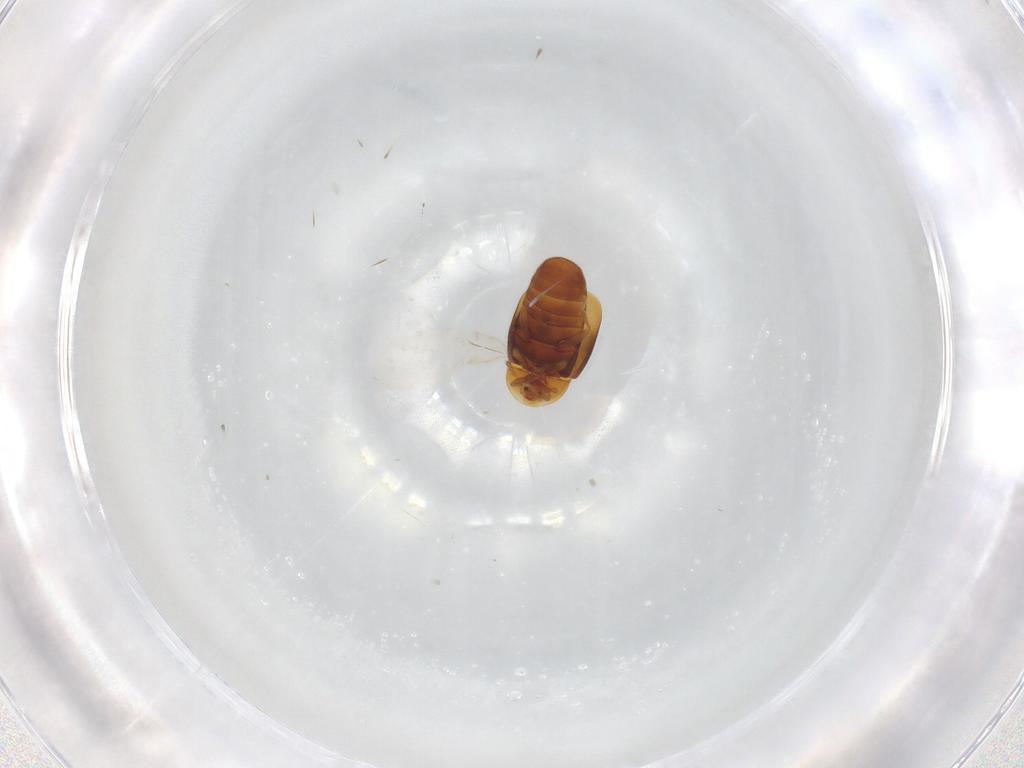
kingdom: Animalia
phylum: Arthropoda
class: Insecta
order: Coleoptera
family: Corylophidae
